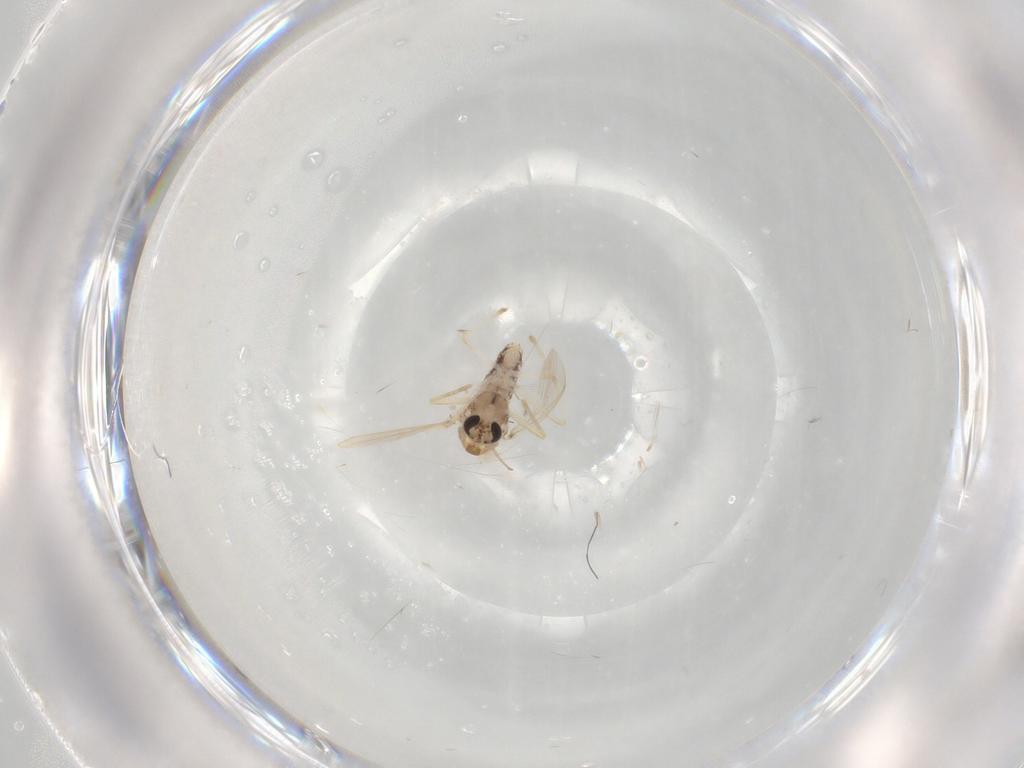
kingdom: Animalia
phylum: Arthropoda
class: Insecta
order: Diptera
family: Chironomidae
